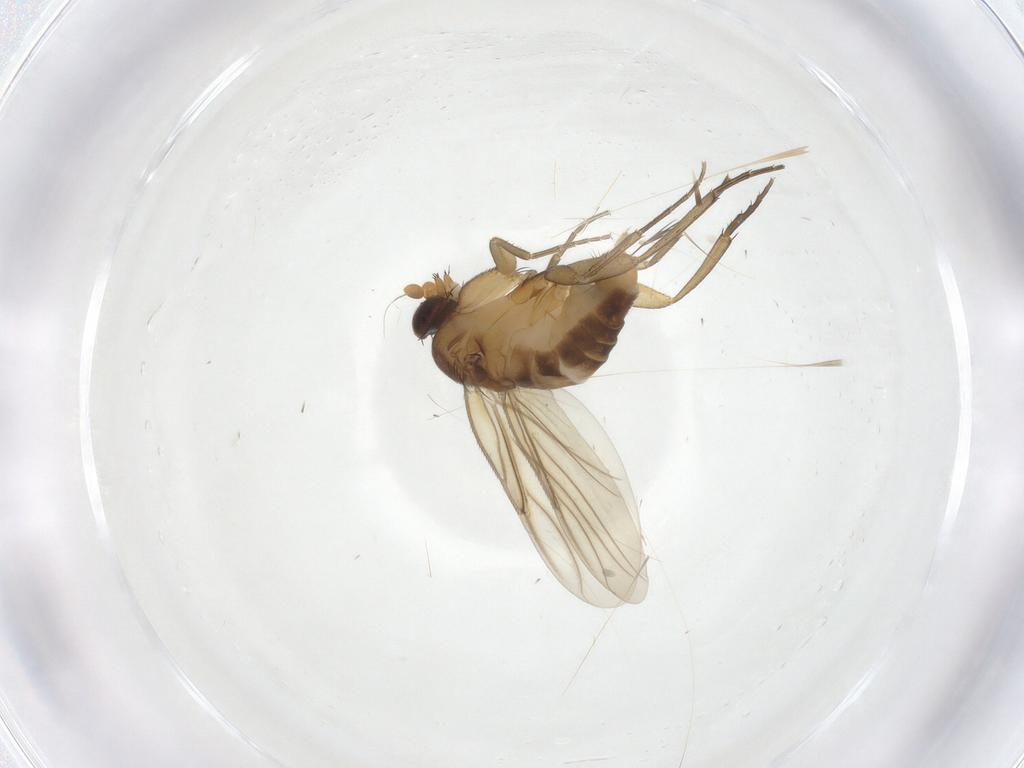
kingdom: Animalia
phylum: Arthropoda
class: Insecta
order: Diptera
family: Phoridae
